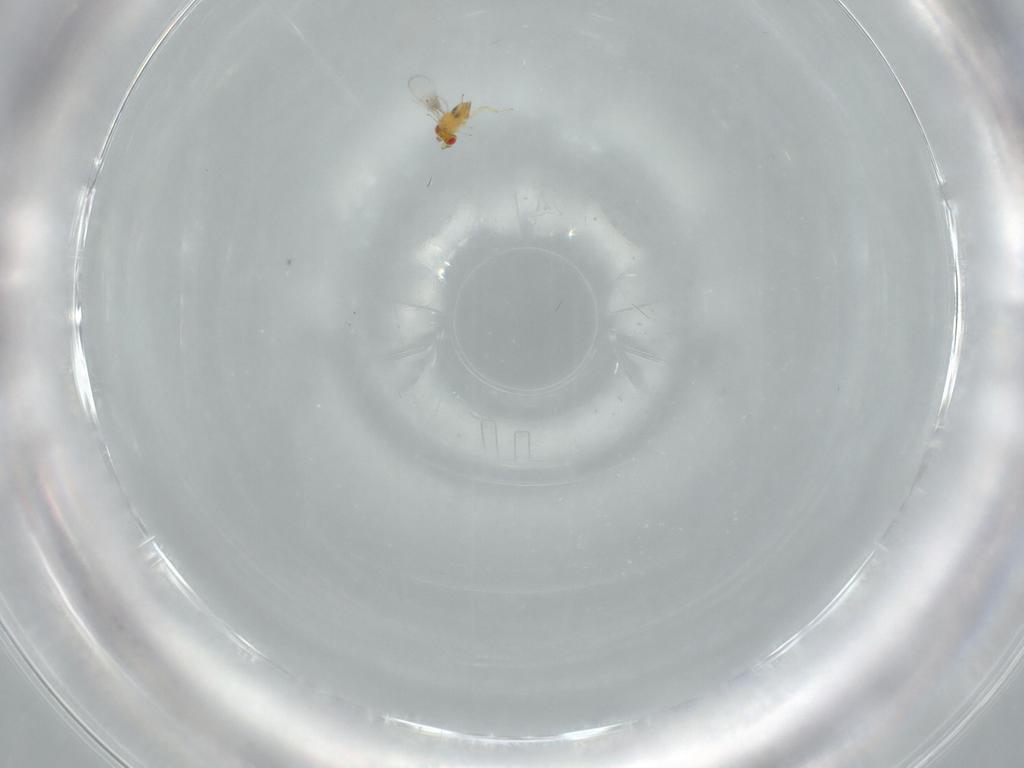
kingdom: Animalia
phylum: Arthropoda
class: Insecta
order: Hymenoptera
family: Trichogrammatidae
